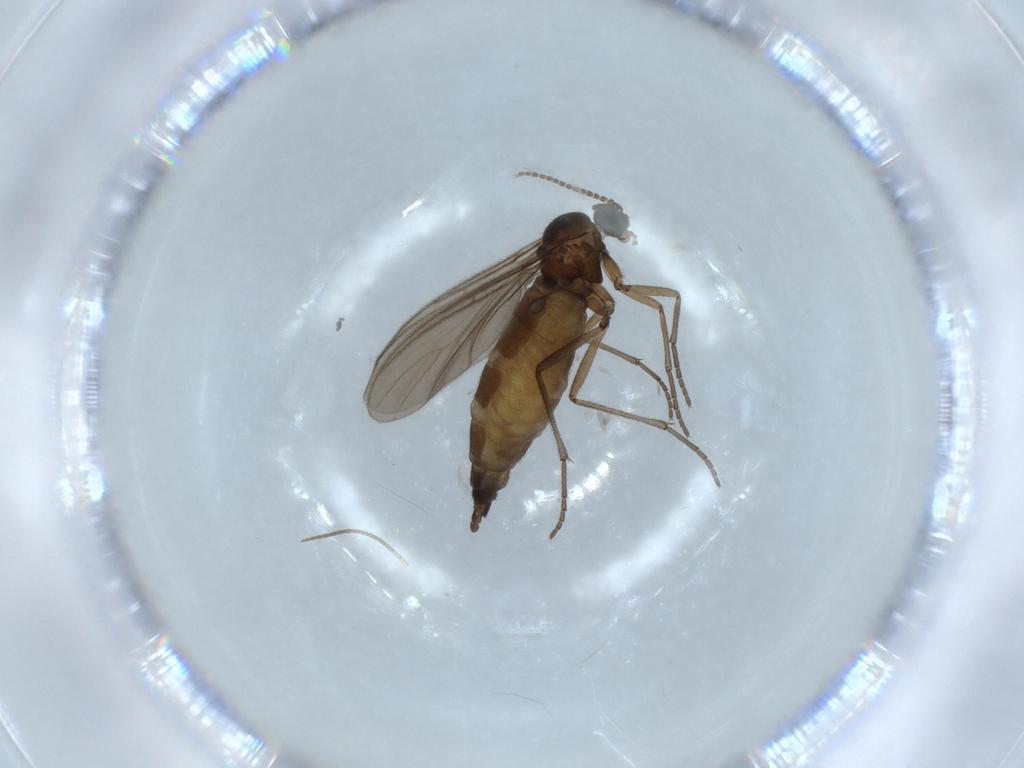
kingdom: Animalia
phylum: Arthropoda
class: Insecta
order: Diptera
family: Sciaridae
